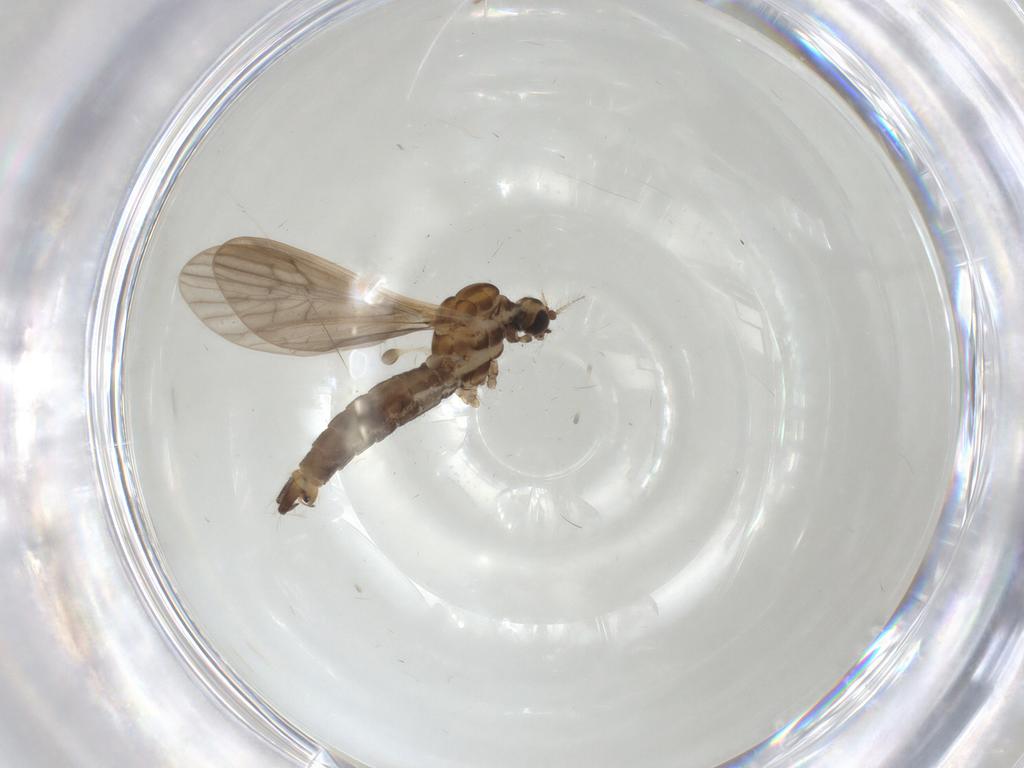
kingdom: Animalia
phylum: Arthropoda
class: Insecta
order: Diptera
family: Limoniidae
